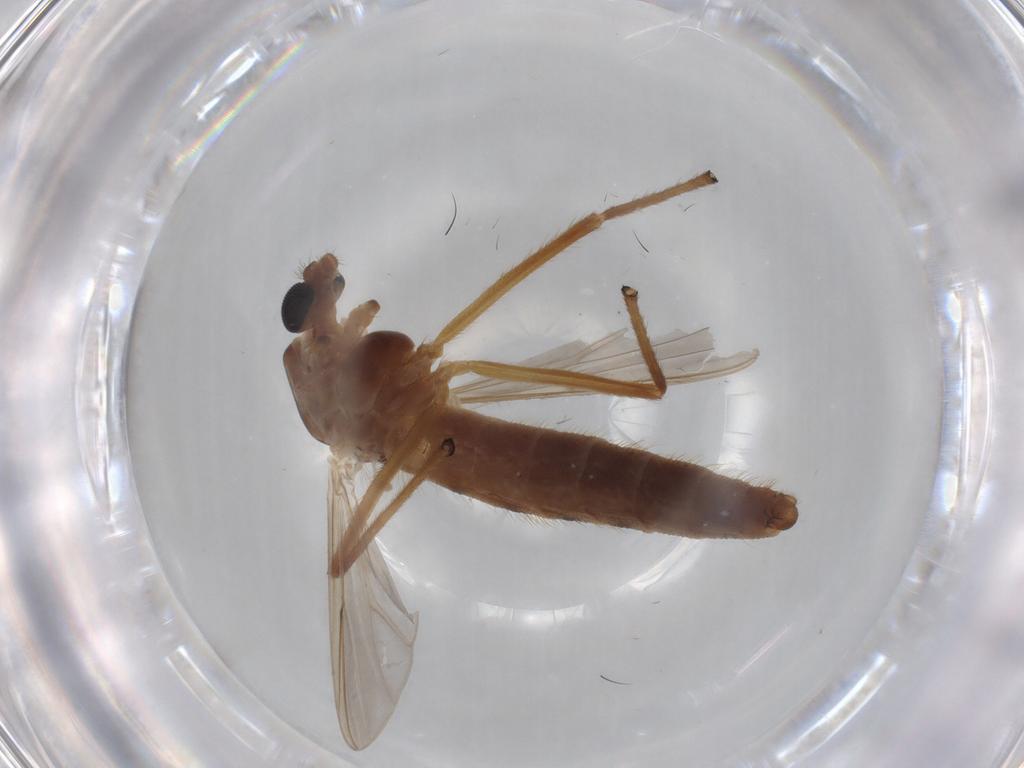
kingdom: Animalia
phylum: Arthropoda
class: Insecta
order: Diptera
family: Chironomidae
